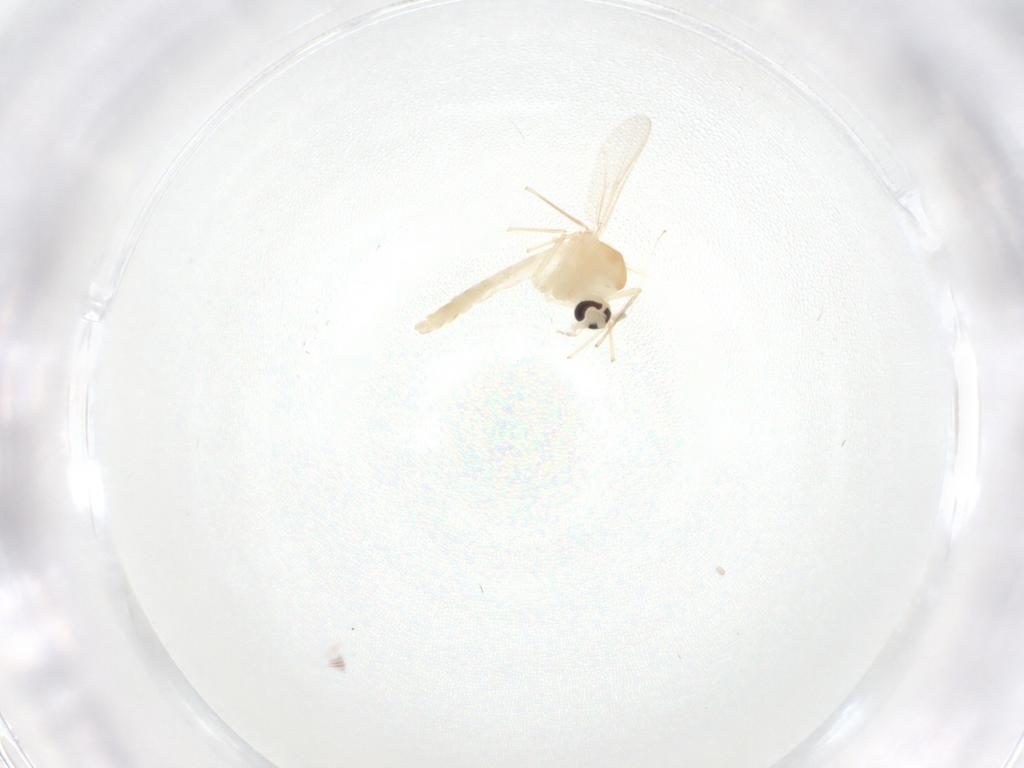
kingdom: Animalia
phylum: Arthropoda
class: Insecta
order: Diptera
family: Chironomidae
